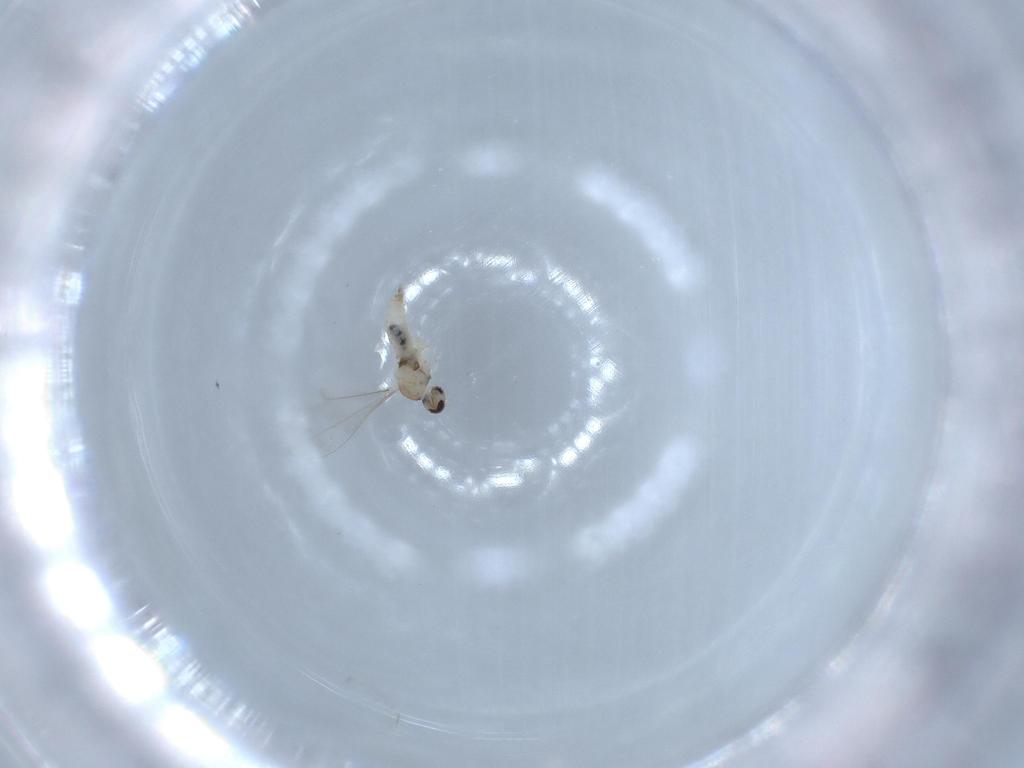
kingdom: Animalia
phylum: Arthropoda
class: Insecta
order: Diptera
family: Cecidomyiidae
